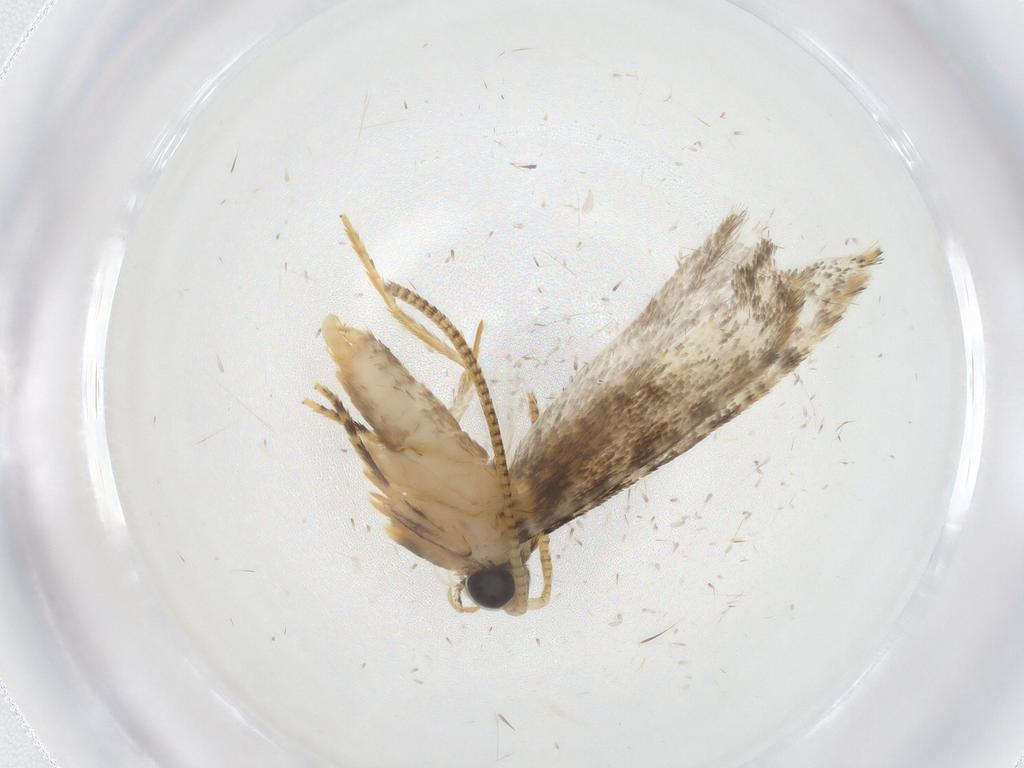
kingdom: Animalia
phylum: Arthropoda
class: Insecta
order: Lepidoptera
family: Tineidae
